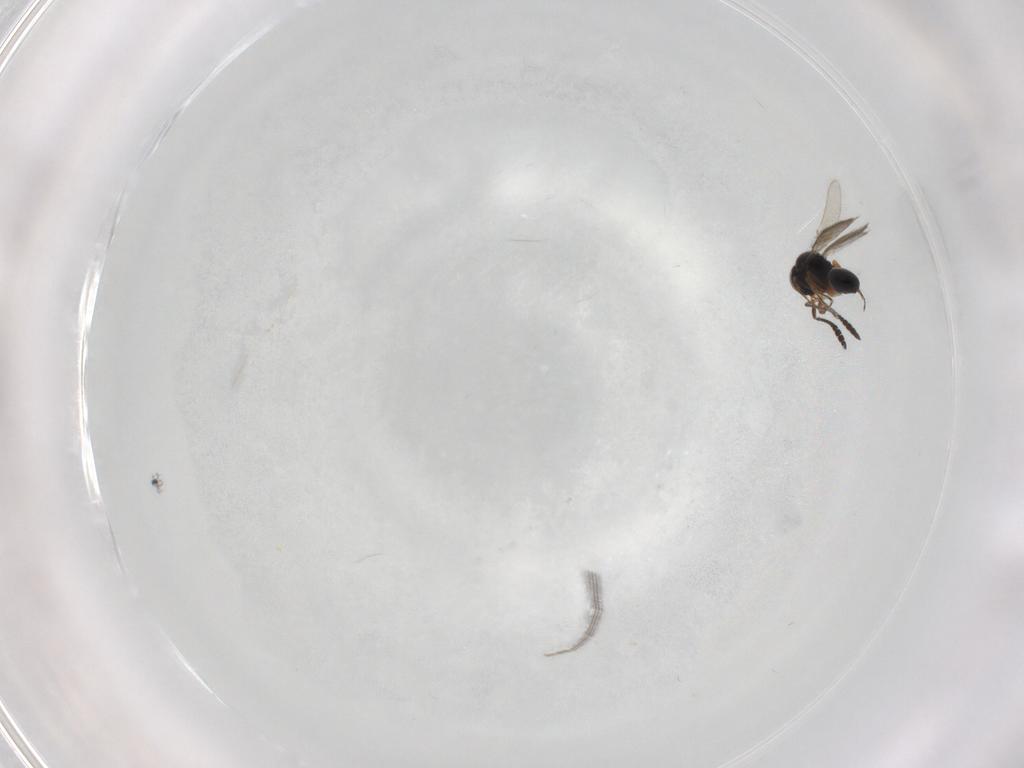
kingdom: Animalia
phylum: Arthropoda
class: Insecta
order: Hymenoptera
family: Scelionidae
